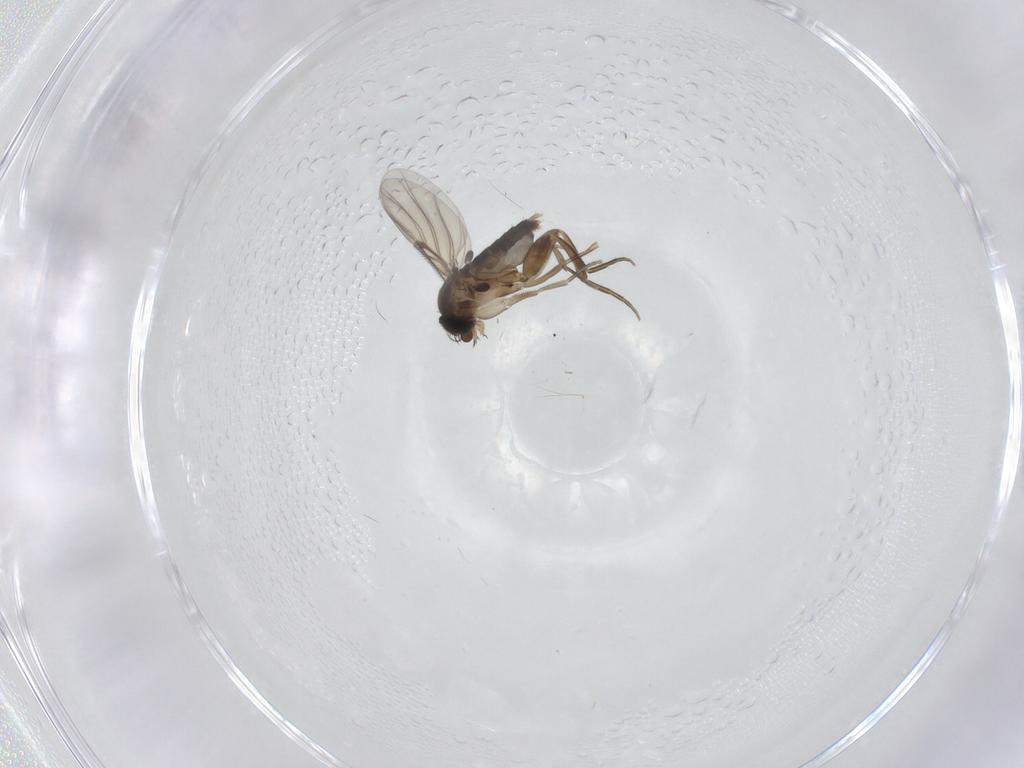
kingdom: Animalia
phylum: Arthropoda
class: Insecta
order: Diptera
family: Phoridae
